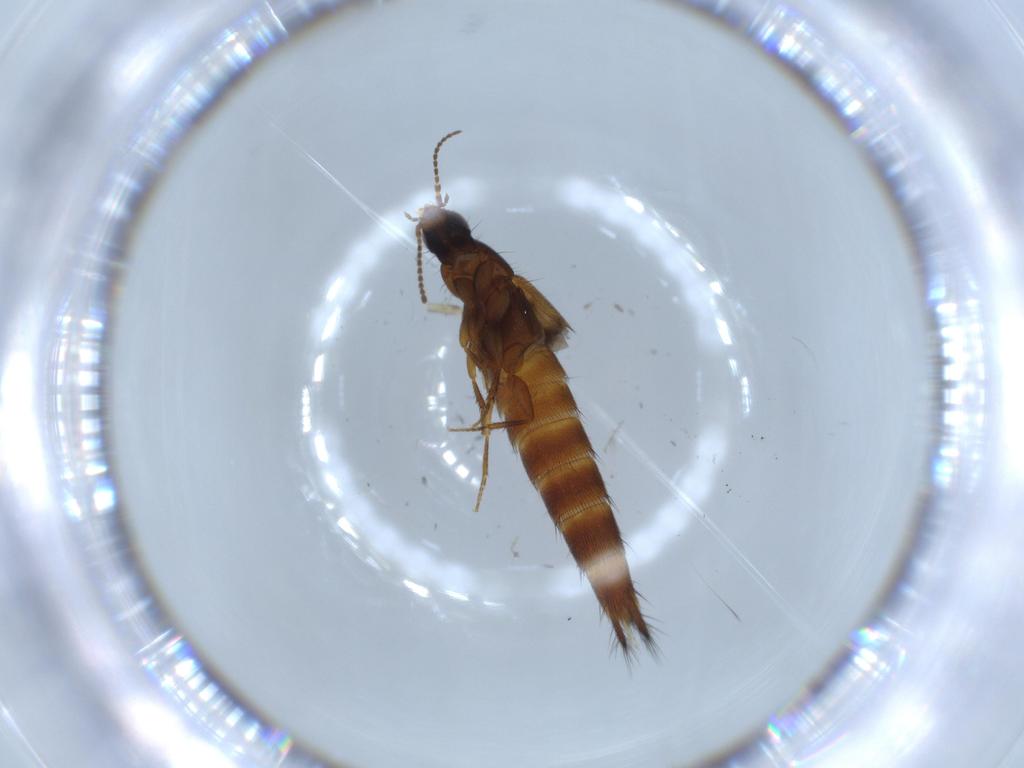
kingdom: Animalia
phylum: Arthropoda
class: Insecta
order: Coleoptera
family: Staphylinidae
